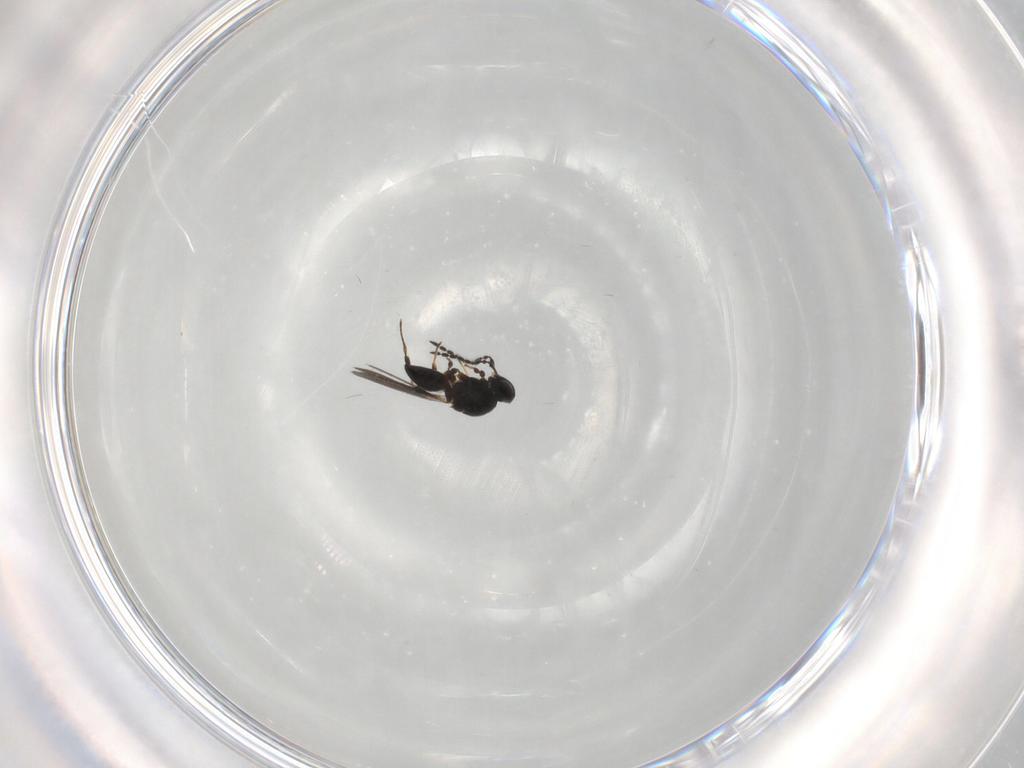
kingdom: Animalia
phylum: Arthropoda
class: Insecta
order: Hymenoptera
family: Platygastridae
